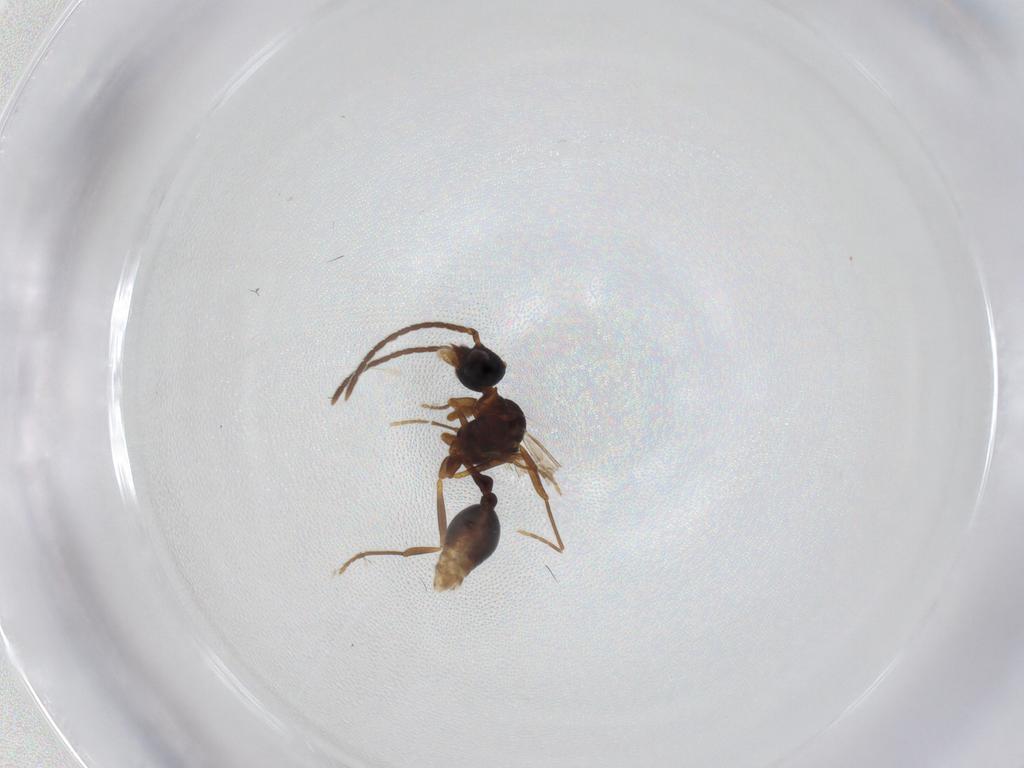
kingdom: Animalia
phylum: Arthropoda
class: Insecta
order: Hymenoptera
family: Formicidae
